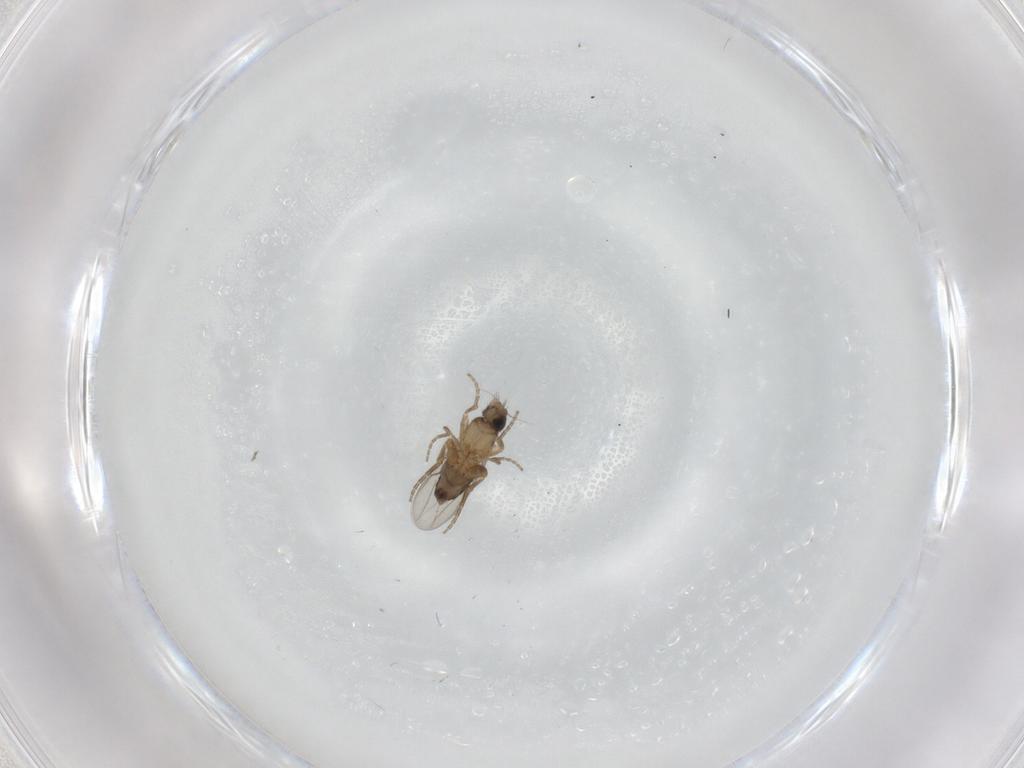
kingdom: Animalia
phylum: Arthropoda
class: Insecta
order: Diptera
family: Phoridae
